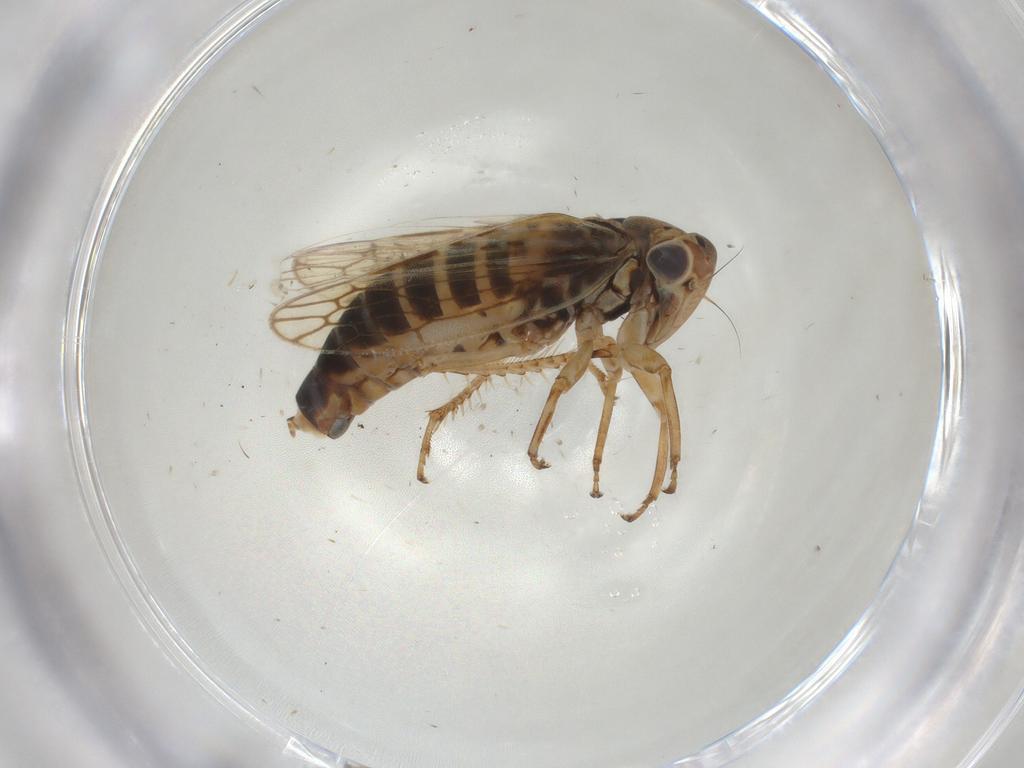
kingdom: Animalia
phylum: Arthropoda
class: Insecta
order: Hemiptera
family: Cicadellidae
